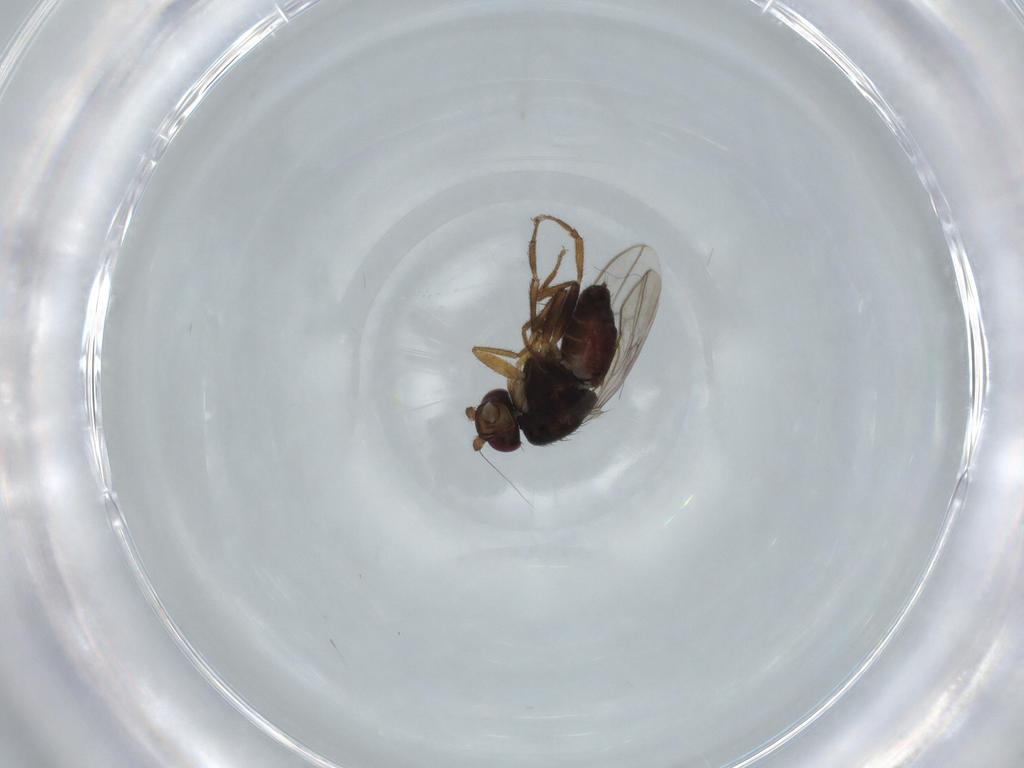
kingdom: Animalia
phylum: Arthropoda
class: Insecta
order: Diptera
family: Sphaeroceridae
